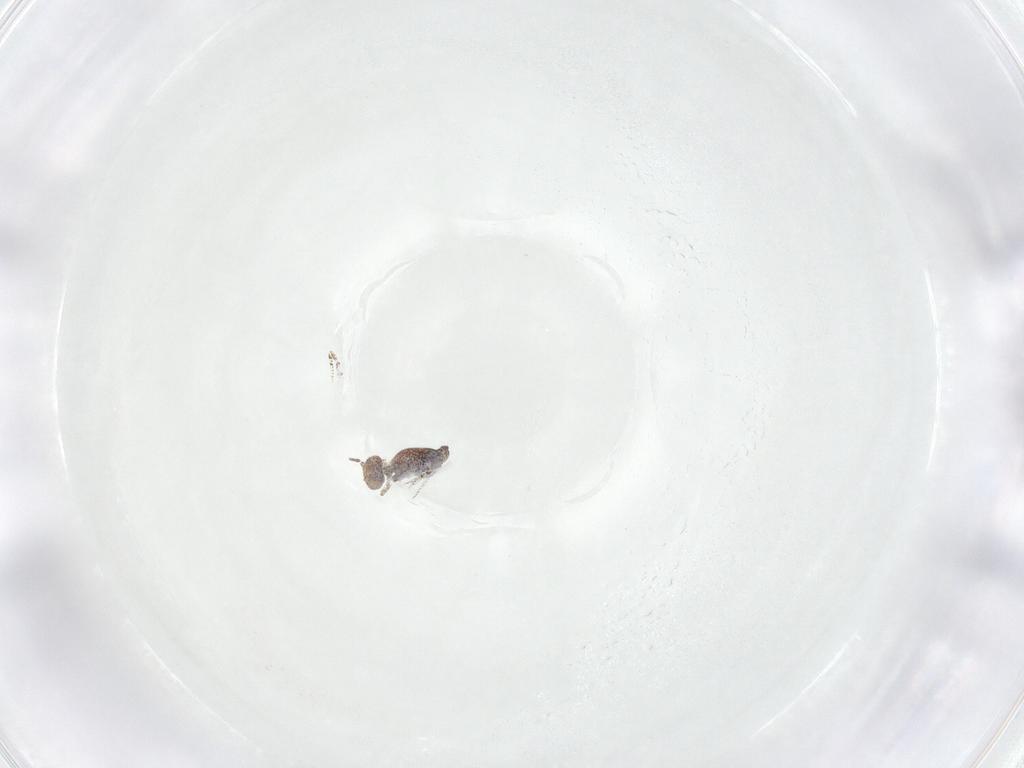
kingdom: Animalia
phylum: Arthropoda
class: Collembola
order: Symphypleona
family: Bourletiellidae
